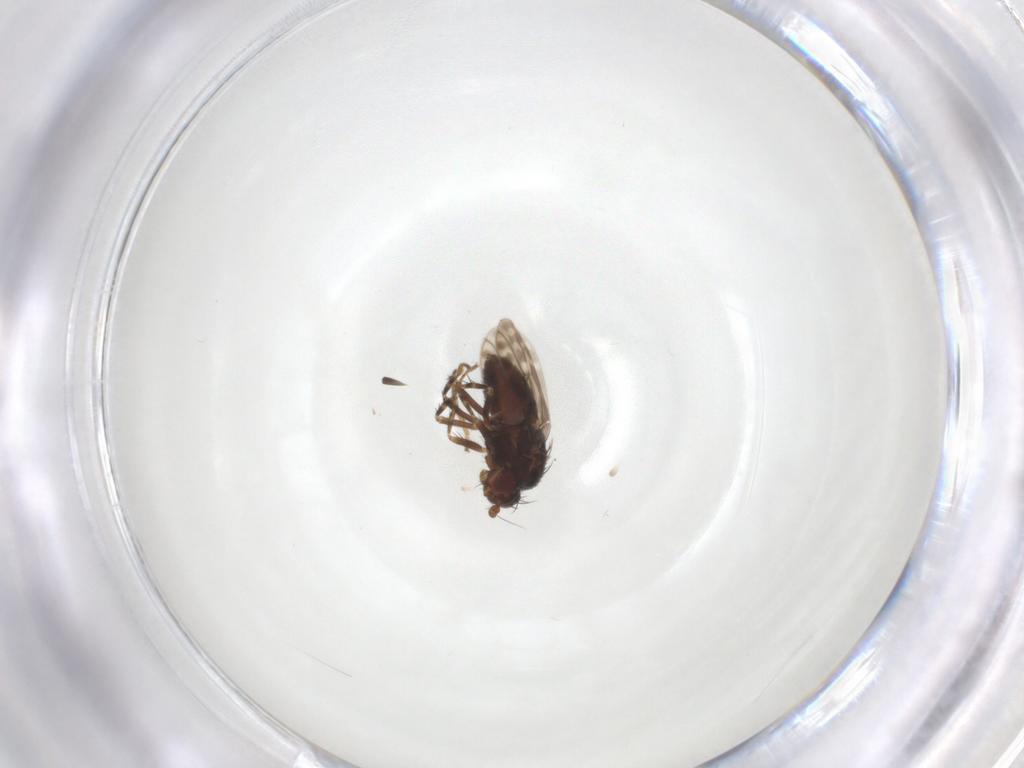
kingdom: Animalia
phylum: Arthropoda
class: Insecta
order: Diptera
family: Sphaeroceridae
